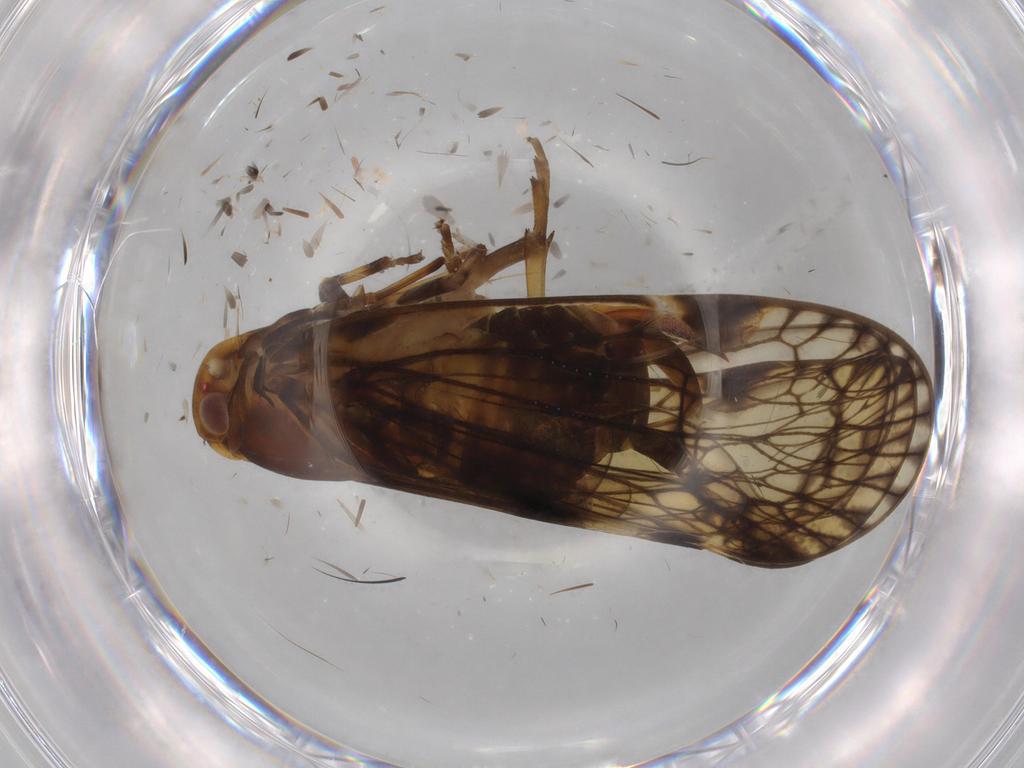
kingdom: Animalia
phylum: Arthropoda
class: Insecta
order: Hemiptera
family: Cixiidae
